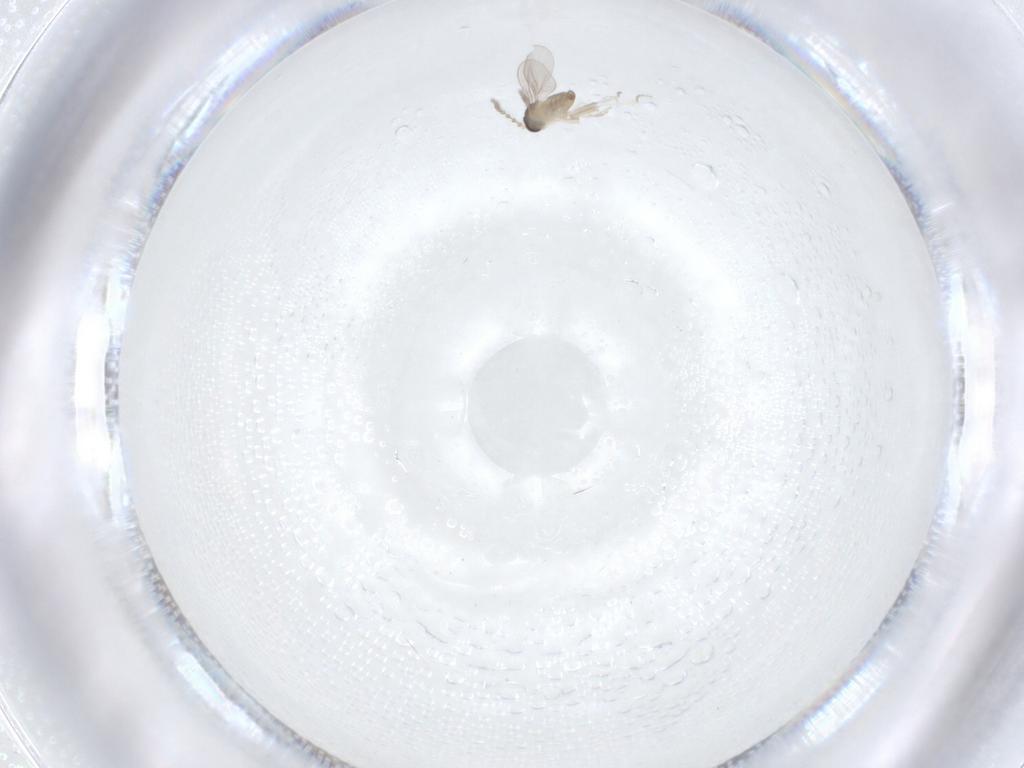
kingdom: Animalia
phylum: Arthropoda
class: Insecta
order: Diptera
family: Cecidomyiidae
